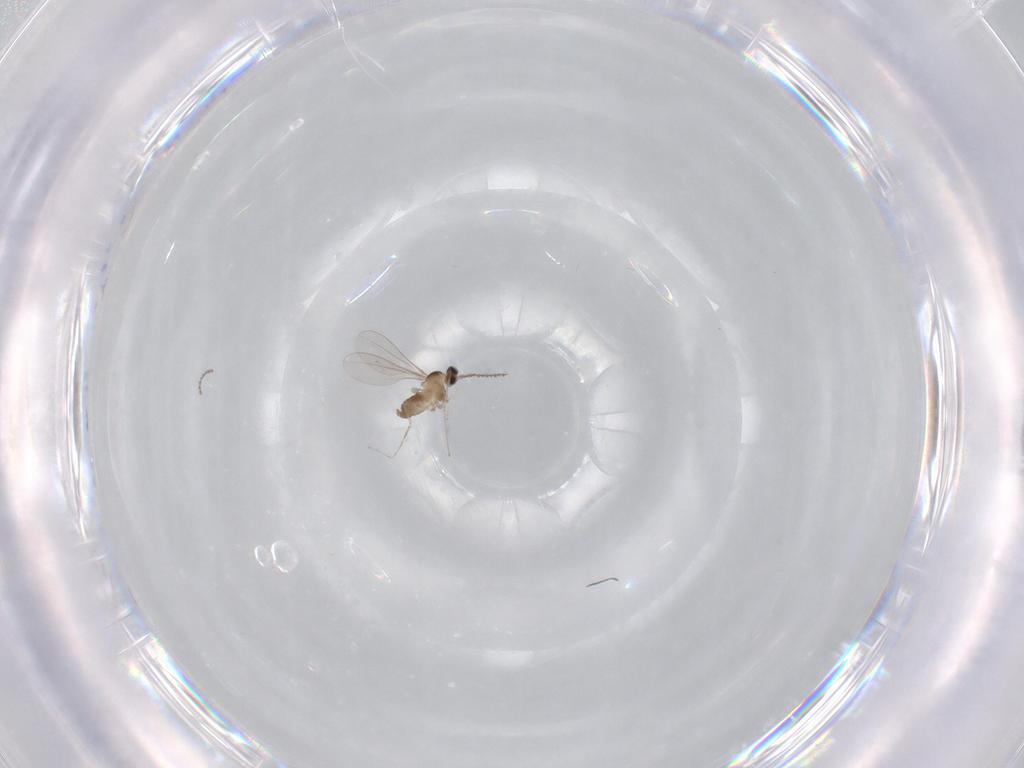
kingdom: Animalia
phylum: Arthropoda
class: Insecta
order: Diptera
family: Cecidomyiidae
